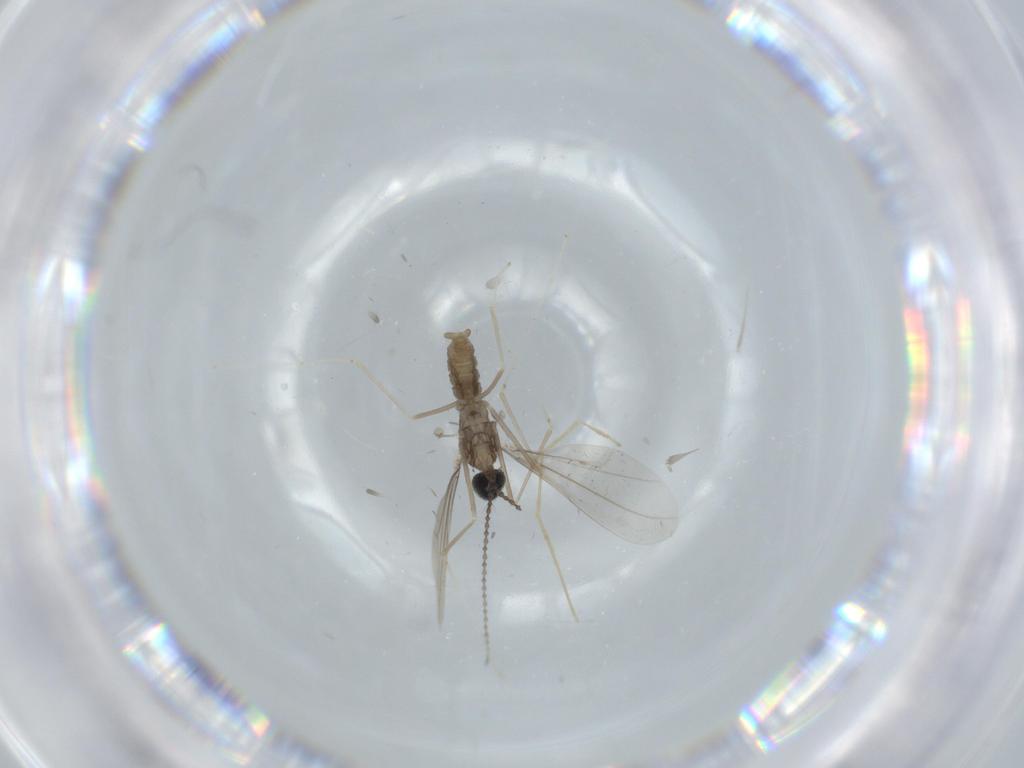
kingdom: Animalia
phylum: Arthropoda
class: Insecta
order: Diptera
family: Cecidomyiidae
